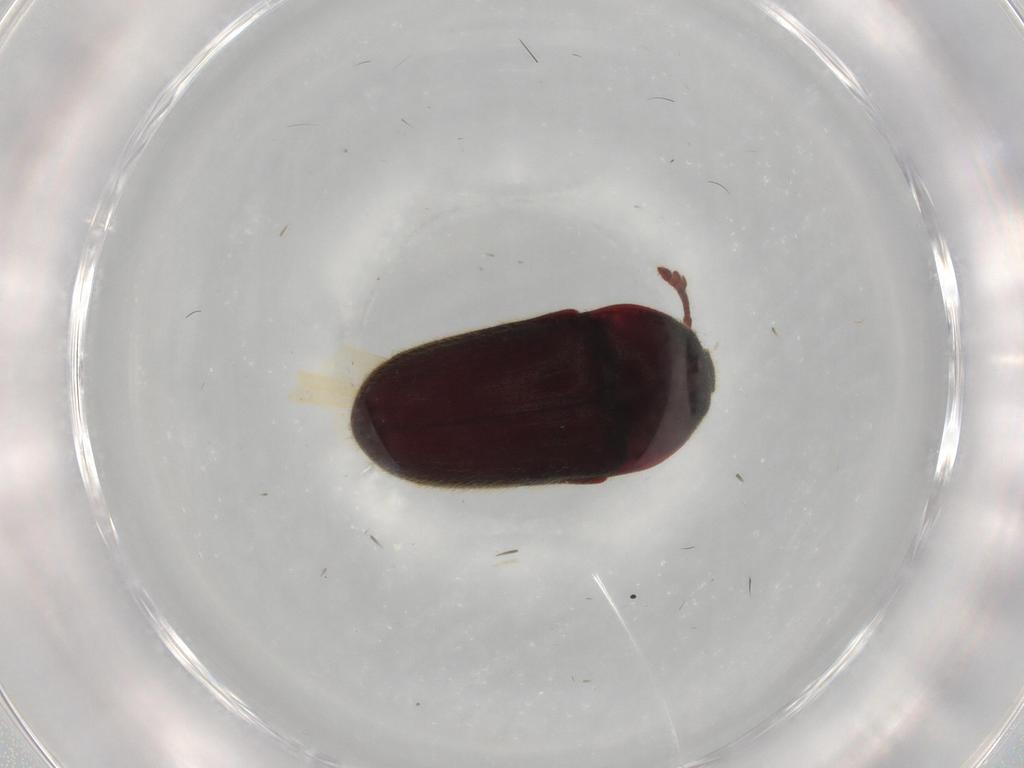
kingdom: Animalia
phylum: Arthropoda
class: Insecta
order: Coleoptera
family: Throscidae
